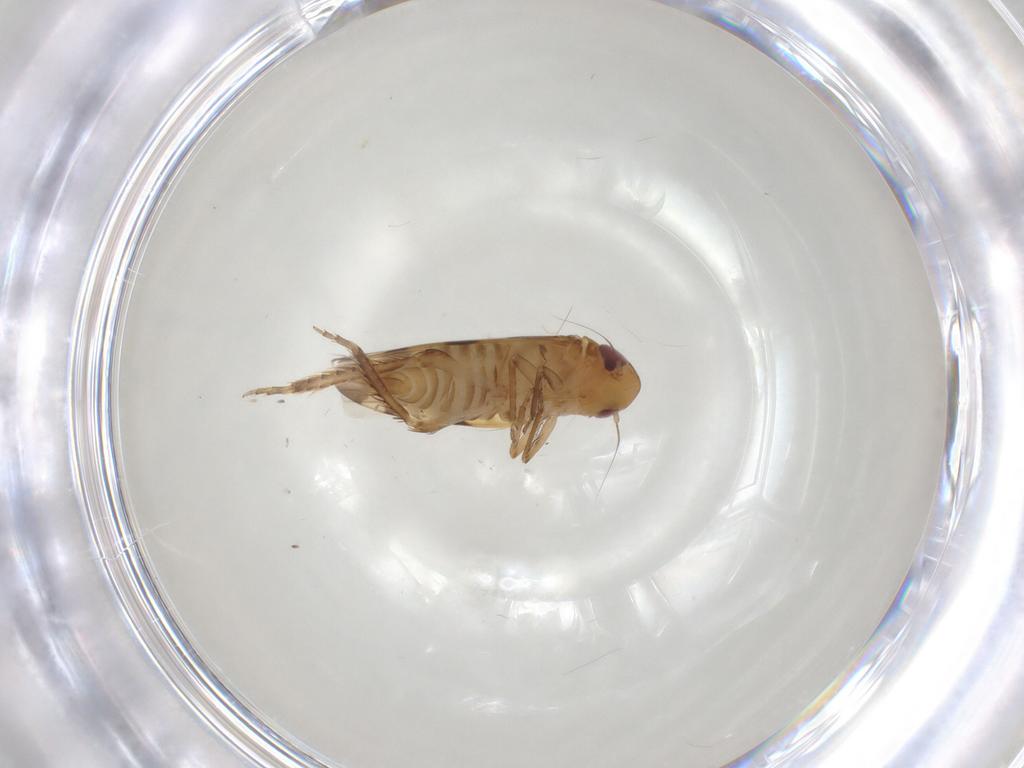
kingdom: Animalia
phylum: Arthropoda
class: Insecta
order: Hemiptera
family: Cicadellidae
